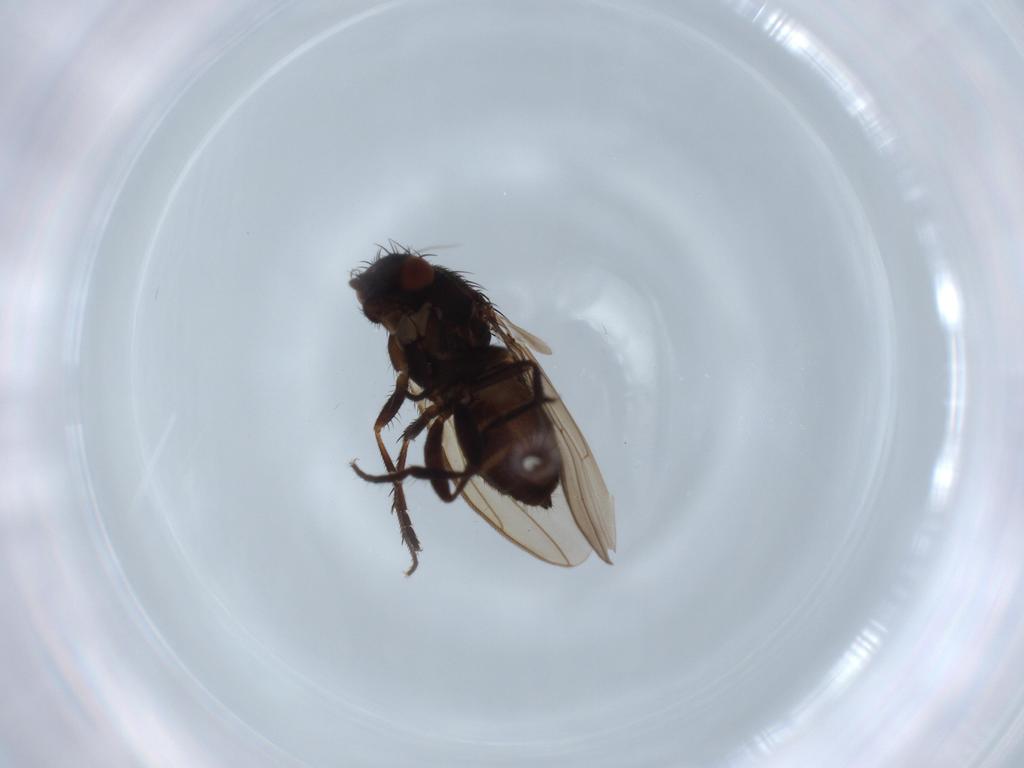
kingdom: Animalia
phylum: Arthropoda
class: Insecta
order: Diptera
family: Sphaeroceridae
